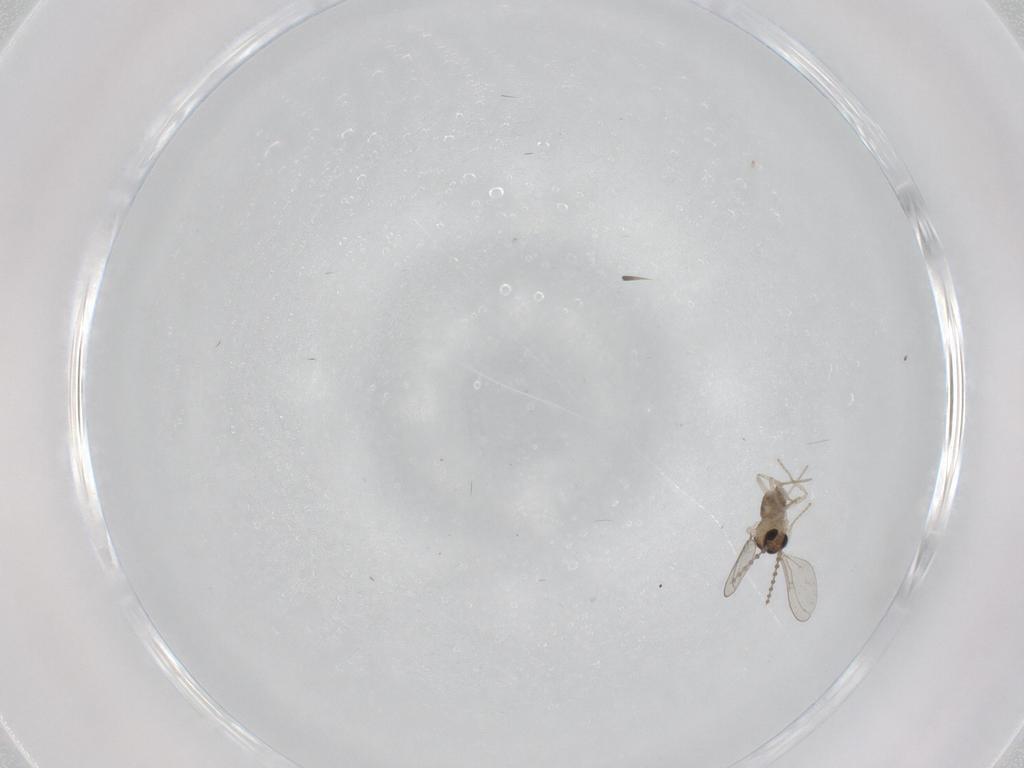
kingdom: Animalia
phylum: Arthropoda
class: Insecta
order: Diptera
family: Cecidomyiidae
